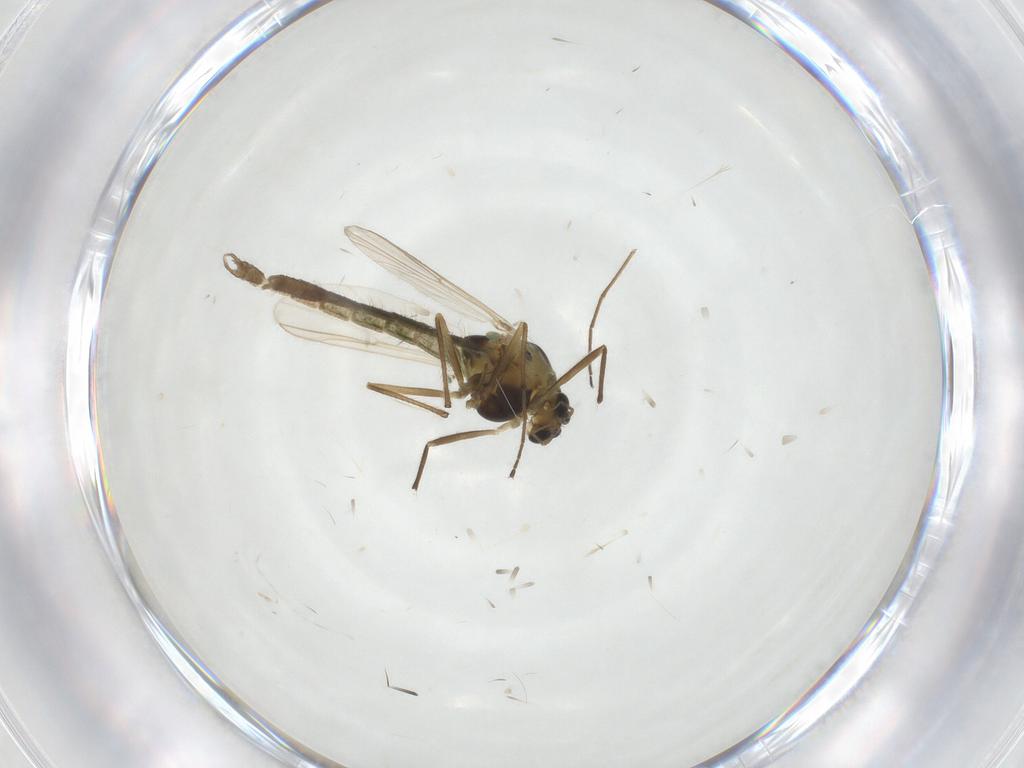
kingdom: Animalia
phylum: Arthropoda
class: Insecta
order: Diptera
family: Chironomidae
